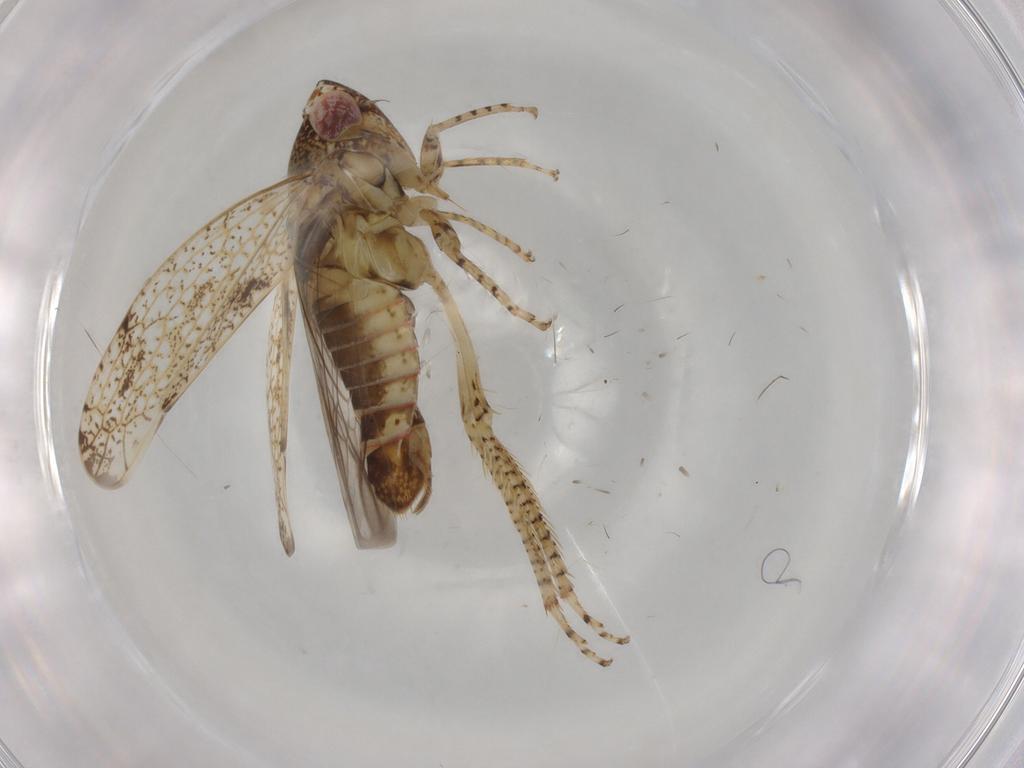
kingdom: Animalia
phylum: Arthropoda
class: Insecta
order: Hemiptera
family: Cicadellidae
